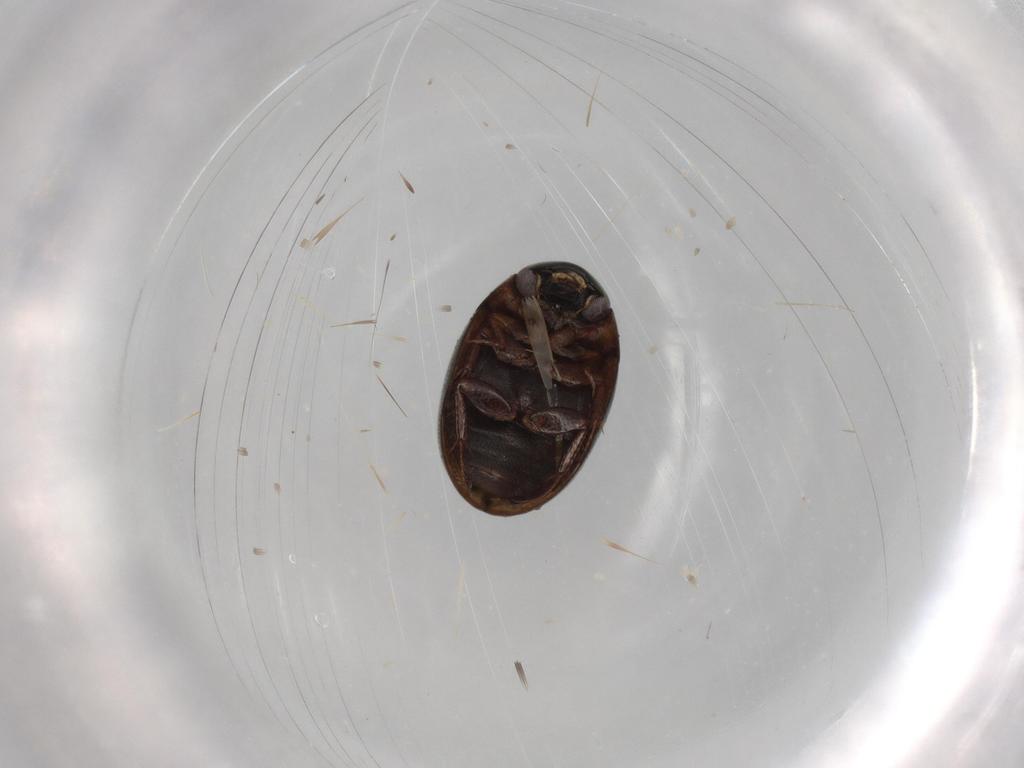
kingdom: Animalia
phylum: Arthropoda
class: Insecta
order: Coleoptera
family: Hydrophilidae
